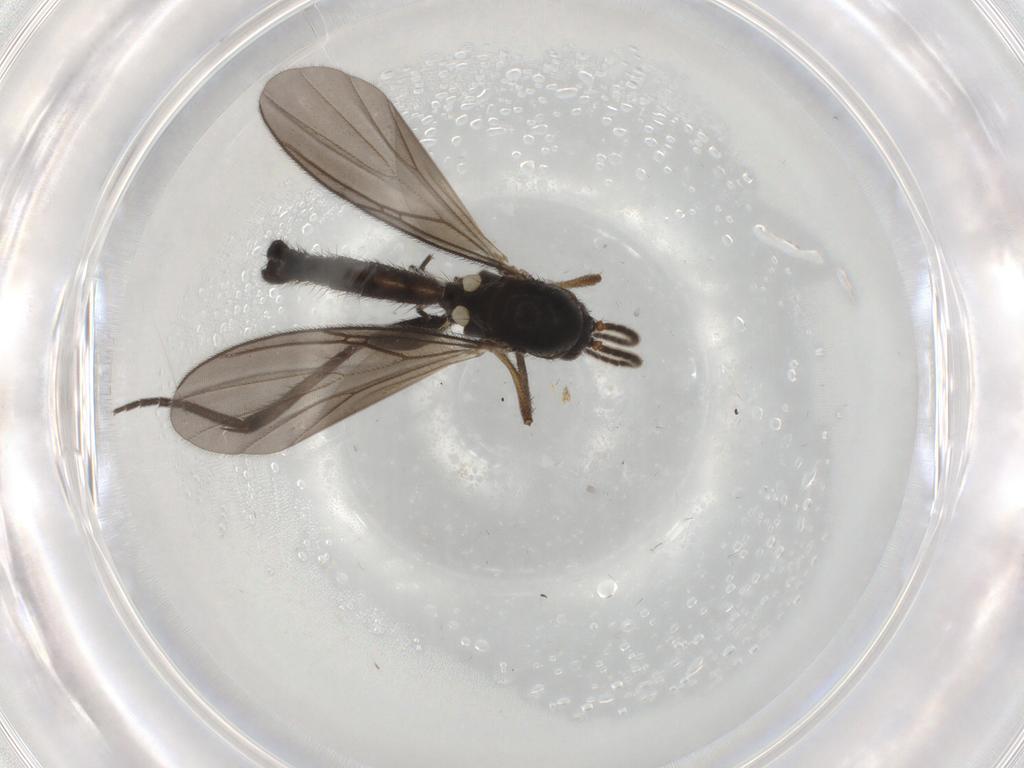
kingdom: Animalia
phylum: Arthropoda
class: Insecta
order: Diptera
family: Mycetophilidae
